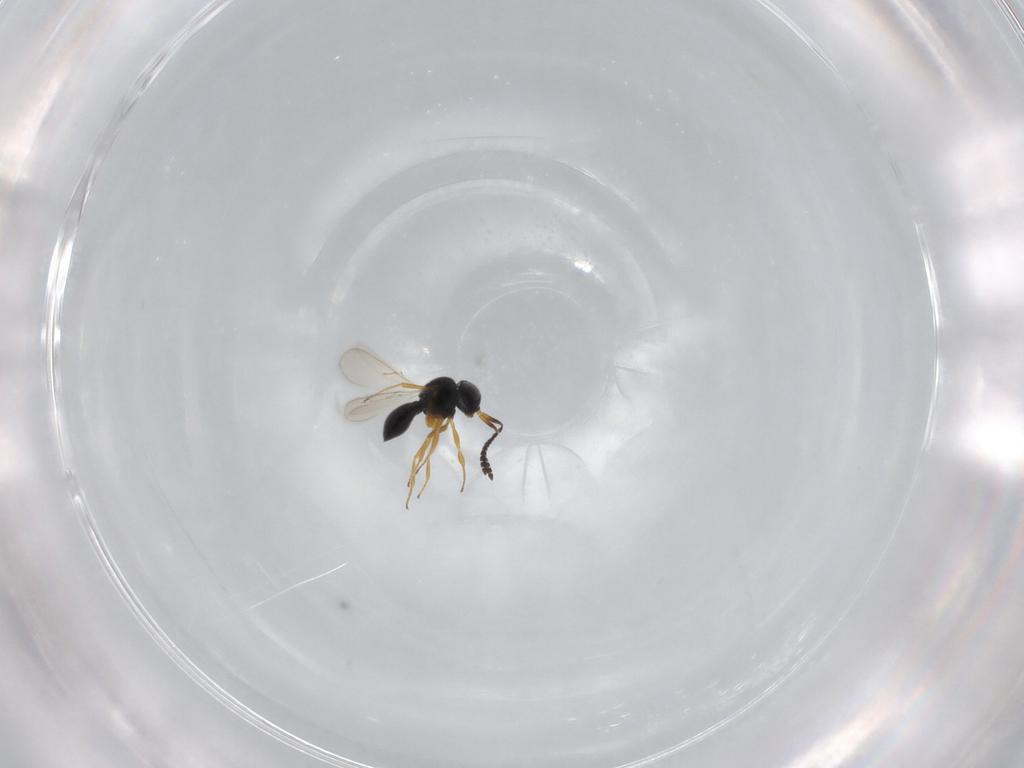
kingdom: Animalia
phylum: Arthropoda
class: Insecta
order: Hymenoptera
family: Scelionidae
